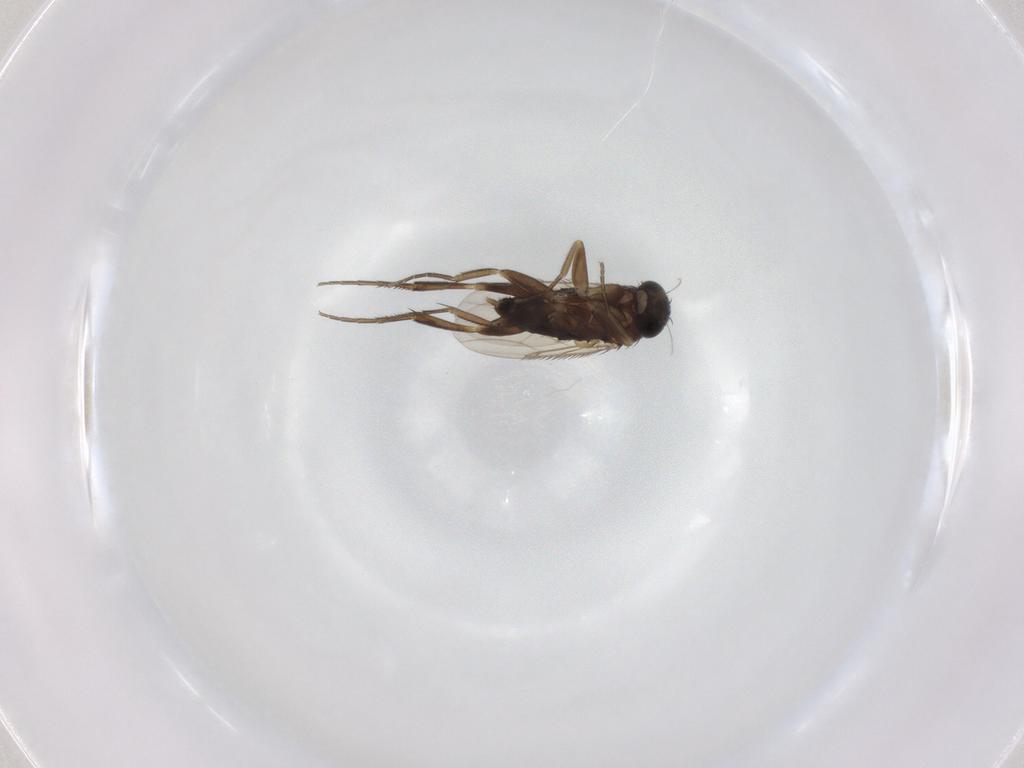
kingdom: Animalia
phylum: Arthropoda
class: Insecta
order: Diptera
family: Phoridae
